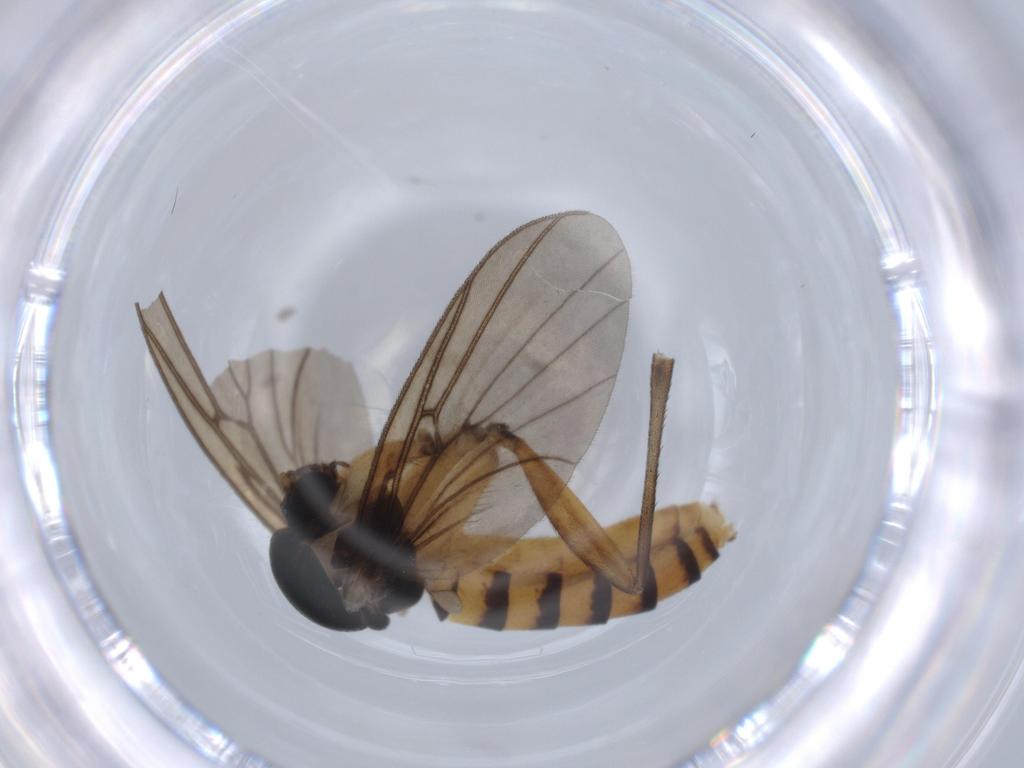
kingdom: Animalia
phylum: Arthropoda
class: Insecta
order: Diptera
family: Mycetophilidae
